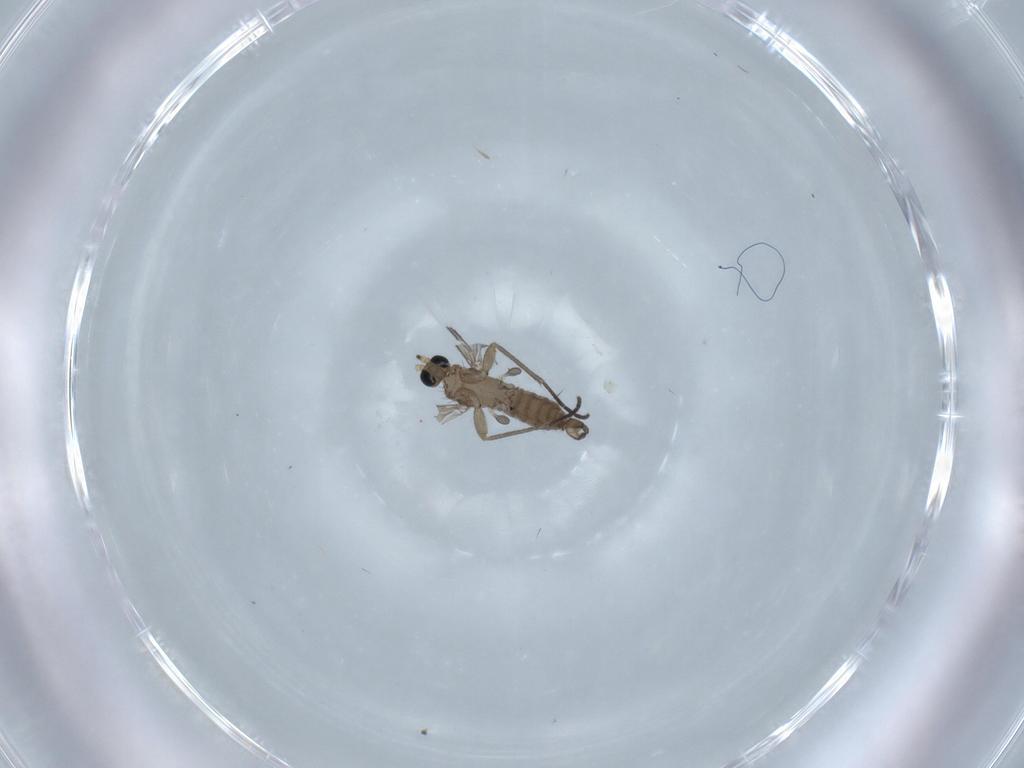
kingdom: Animalia
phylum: Arthropoda
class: Insecta
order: Diptera
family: Sciaridae
